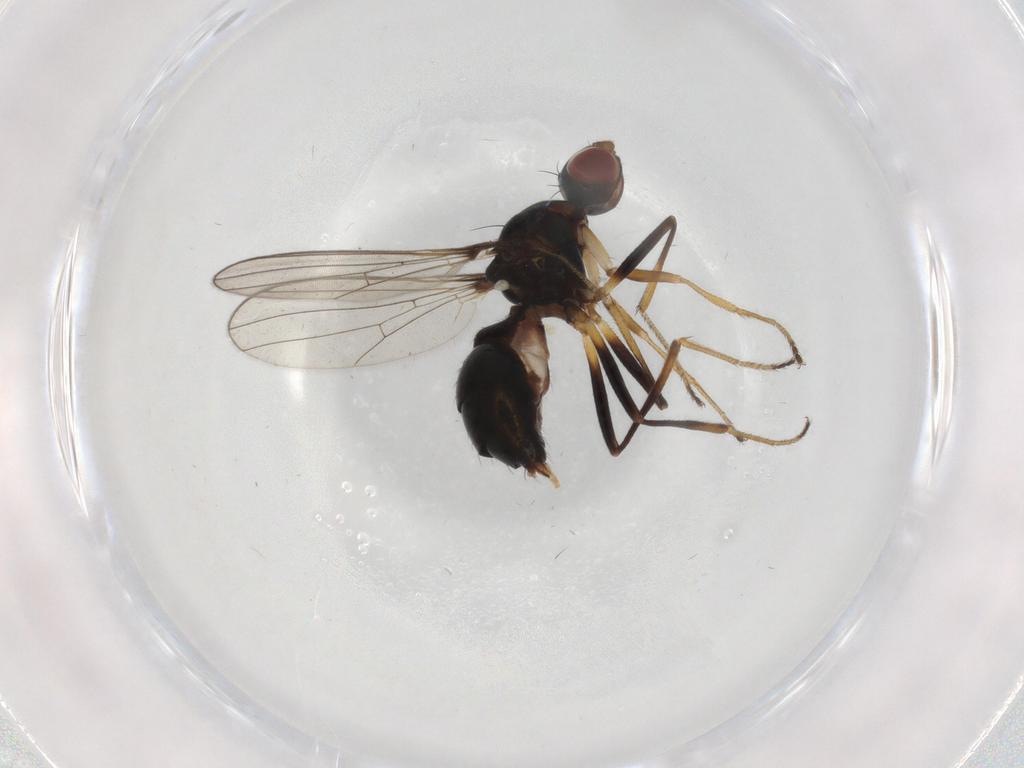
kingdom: Animalia
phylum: Arthropoda
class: Insecta
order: Diptera
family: Sepsidae
